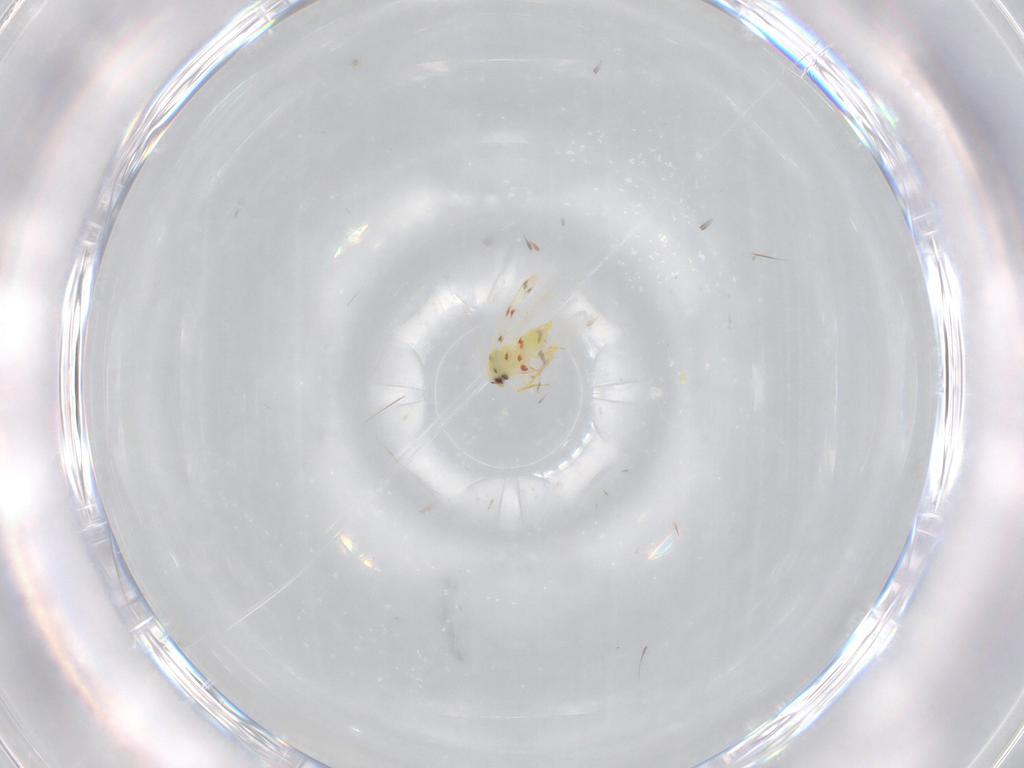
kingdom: Animalia
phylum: Arthropoda
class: Insecta
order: Hemiptera
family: Aleyrodidae
